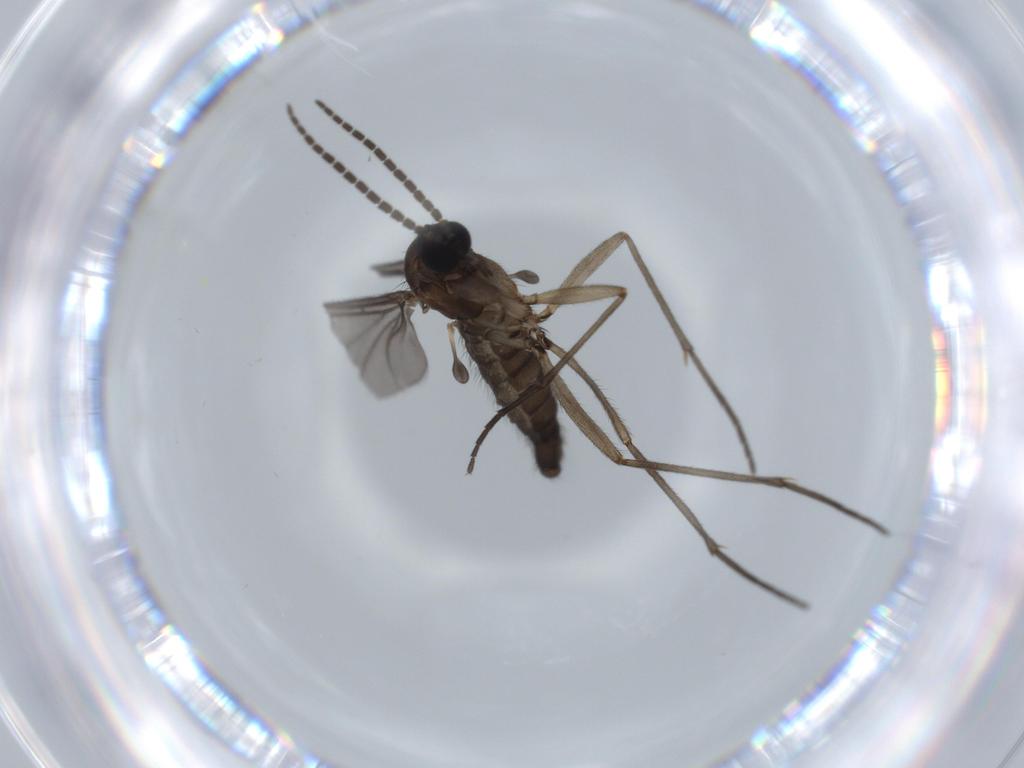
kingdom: Animalia
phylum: Arthropoda
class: Insecta
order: Diptera
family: Sciaridae
